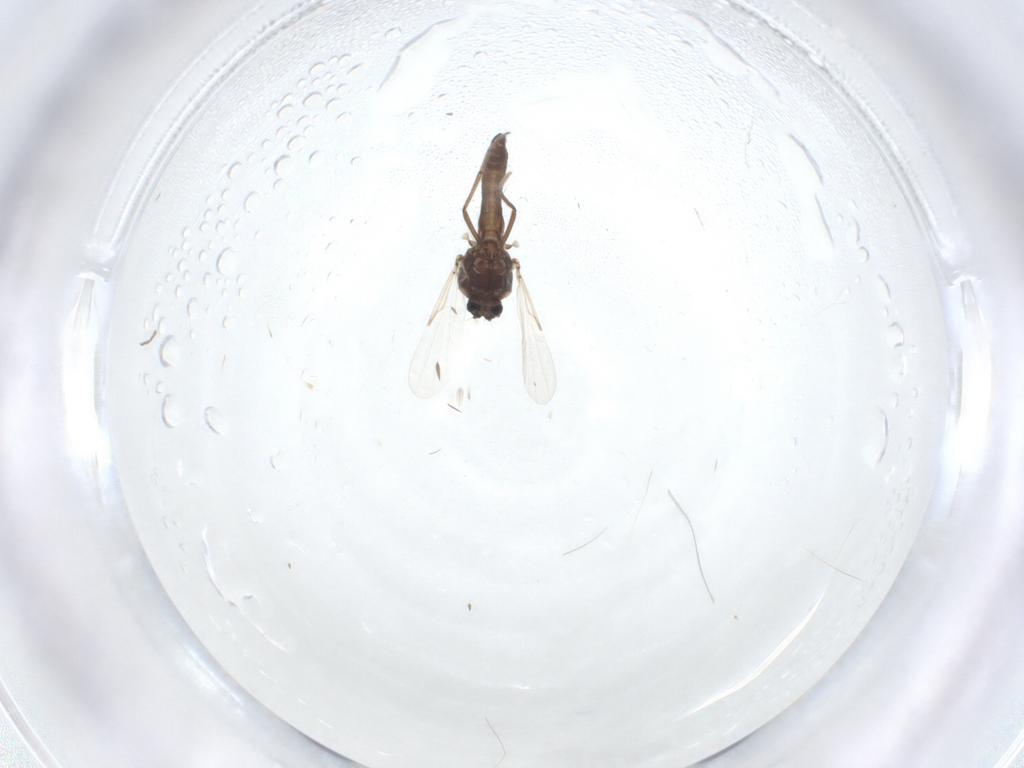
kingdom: Animalia
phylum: Arthropoda
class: Insecta
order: Diptera
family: Ceratopogonidae
